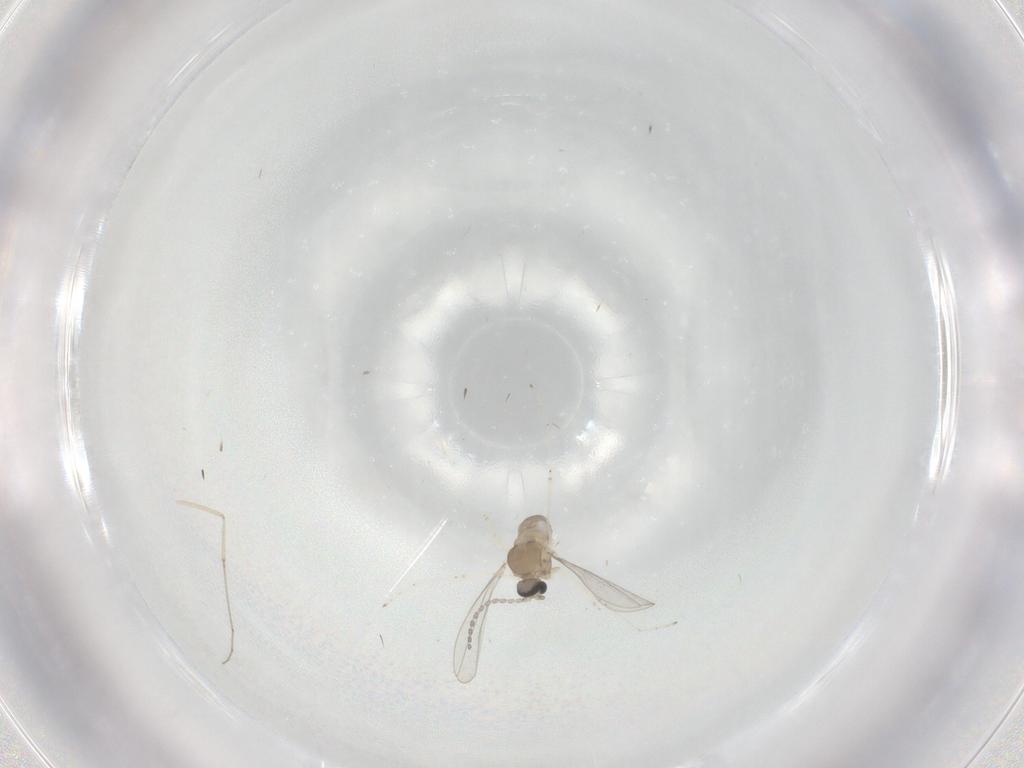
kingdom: Animalia
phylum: Arthropoda
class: Insecta
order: Diptera
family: Cecidomyiidae
